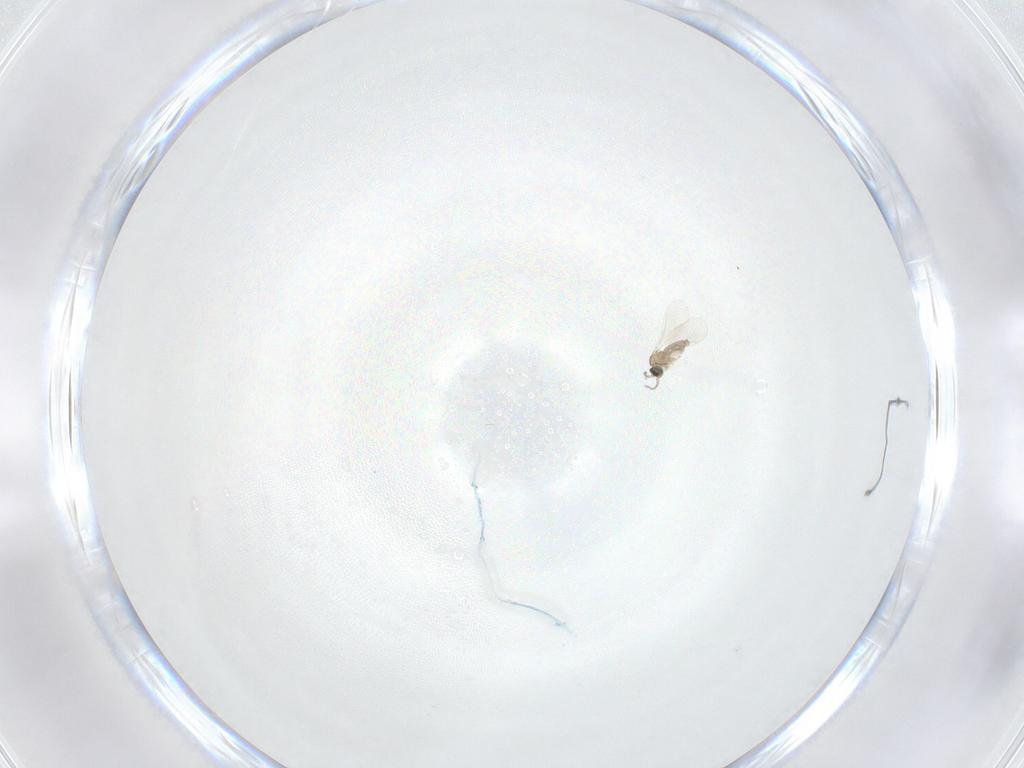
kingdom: Animalia
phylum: Arthropoda
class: Insecta
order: Diptera
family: Cecidomyiidae
